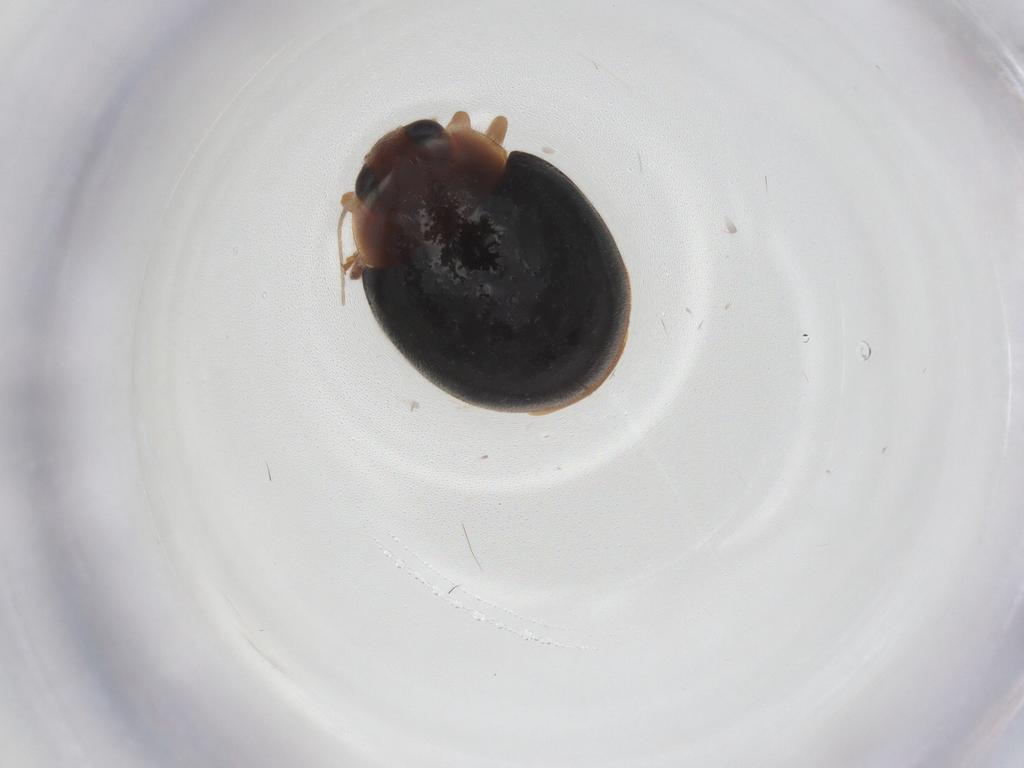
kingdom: Animalia
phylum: Arthropoda
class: Insecta
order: Coleoptera
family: Coccinellidae
